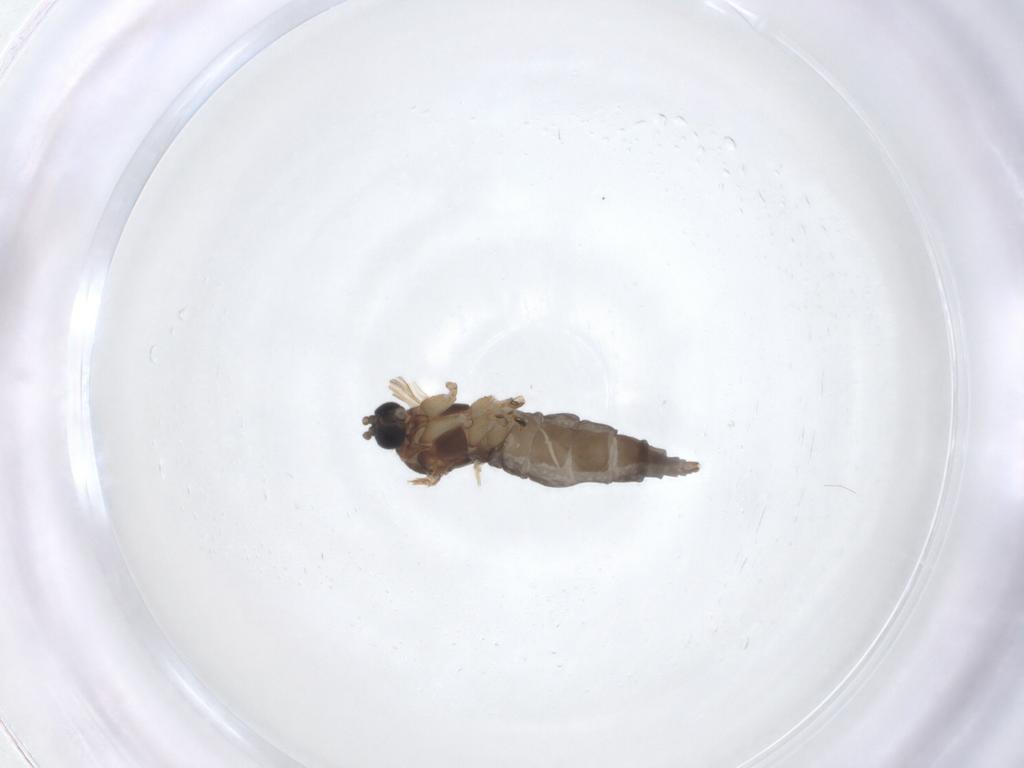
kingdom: Animalia
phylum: Arthropoda
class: Insecta
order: Diptera
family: Sciaridae
